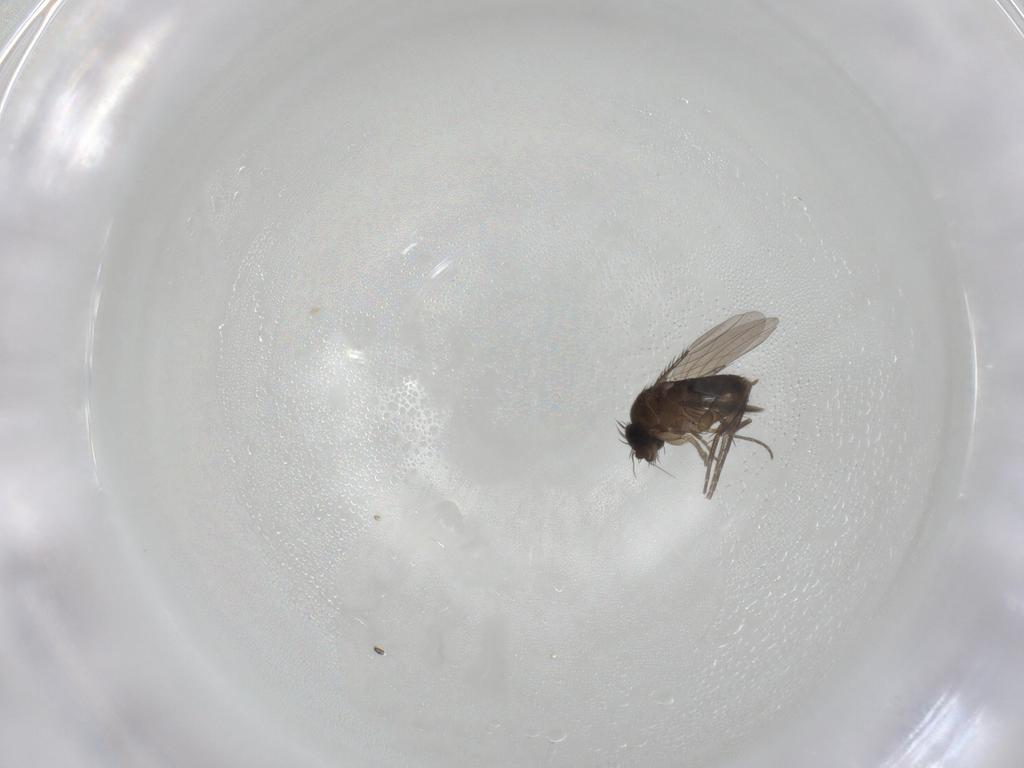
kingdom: Animalia
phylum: Arthropoda
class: Insecta
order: Diptera
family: Phoridae
